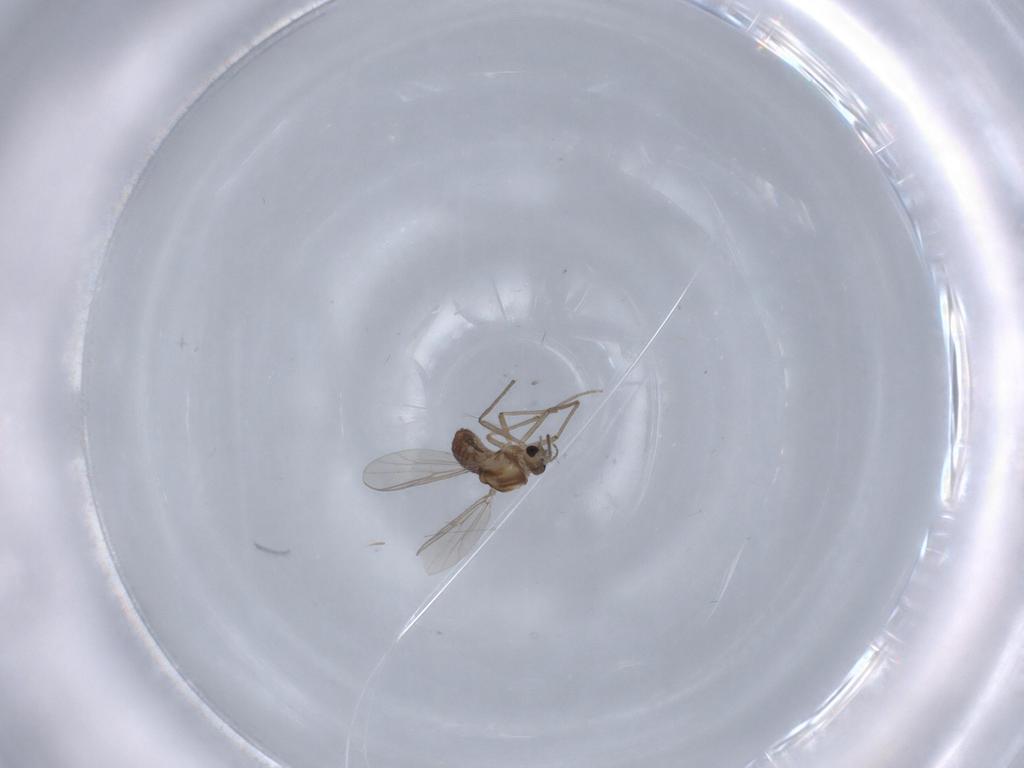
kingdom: Animalia
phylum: Arthropoda
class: Insecta
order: Diptera
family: Chironomidae
